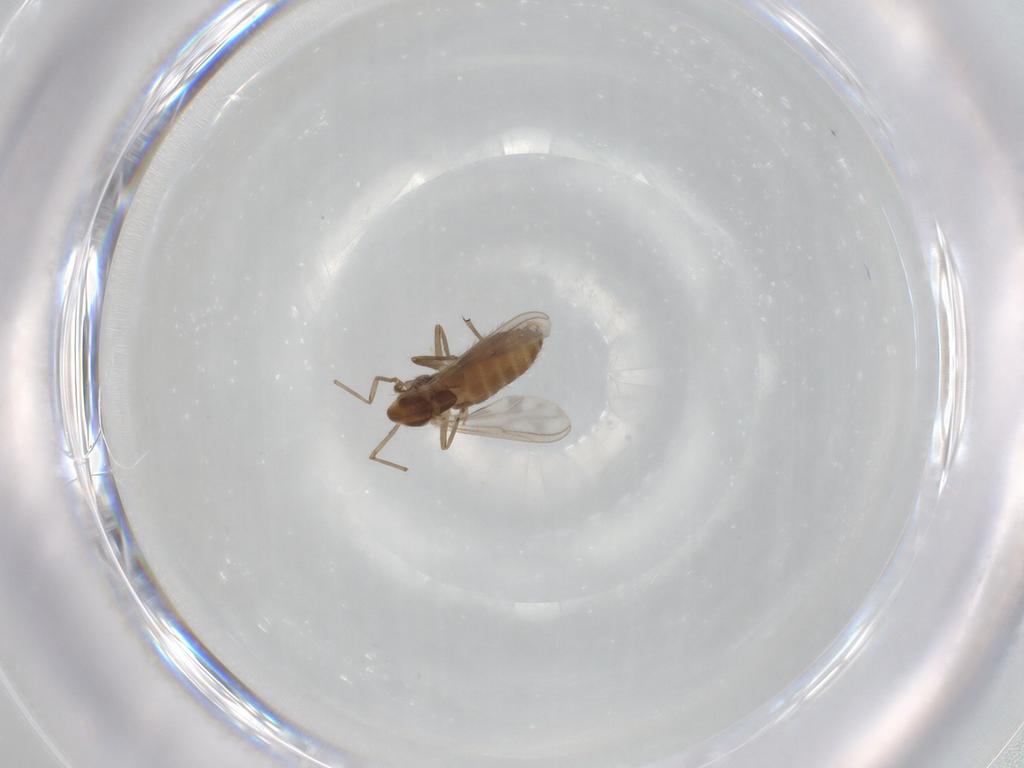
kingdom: Animalia
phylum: Arthropoda
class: Insecta
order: Diptera
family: Chironomidae
